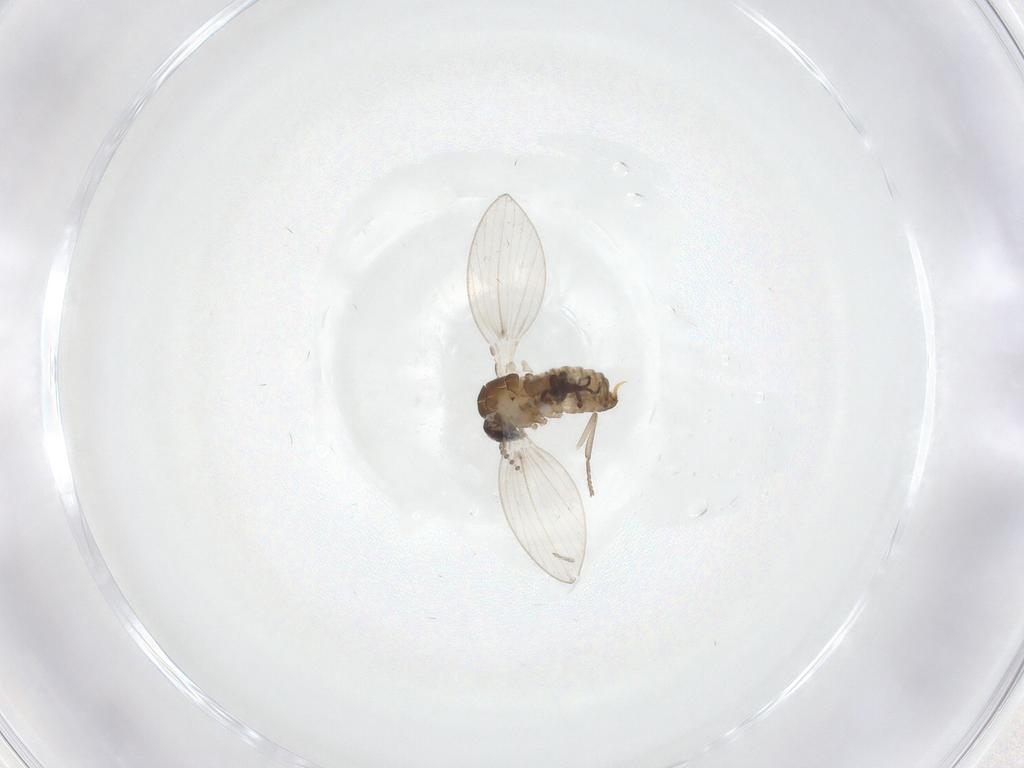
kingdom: Animalia
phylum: Arthropoda
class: Insecta
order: Diptera
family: Psychodidae
